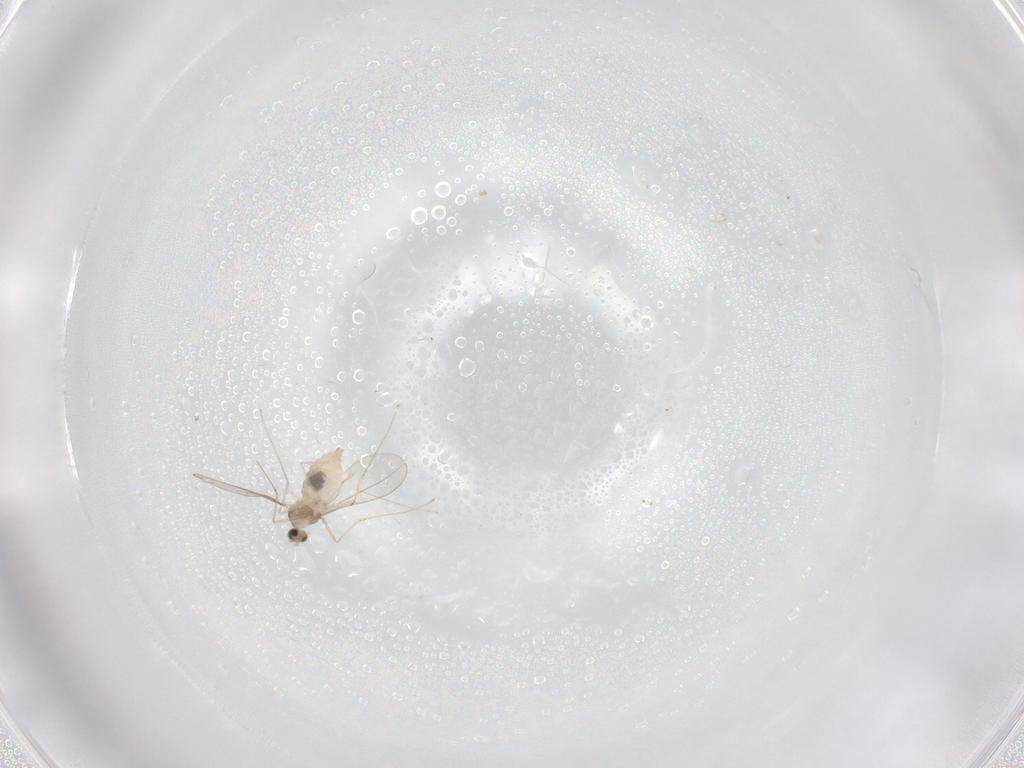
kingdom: Animalia
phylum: Arthropoda
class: Insecta
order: Diptera
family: Cecidomyiidae
